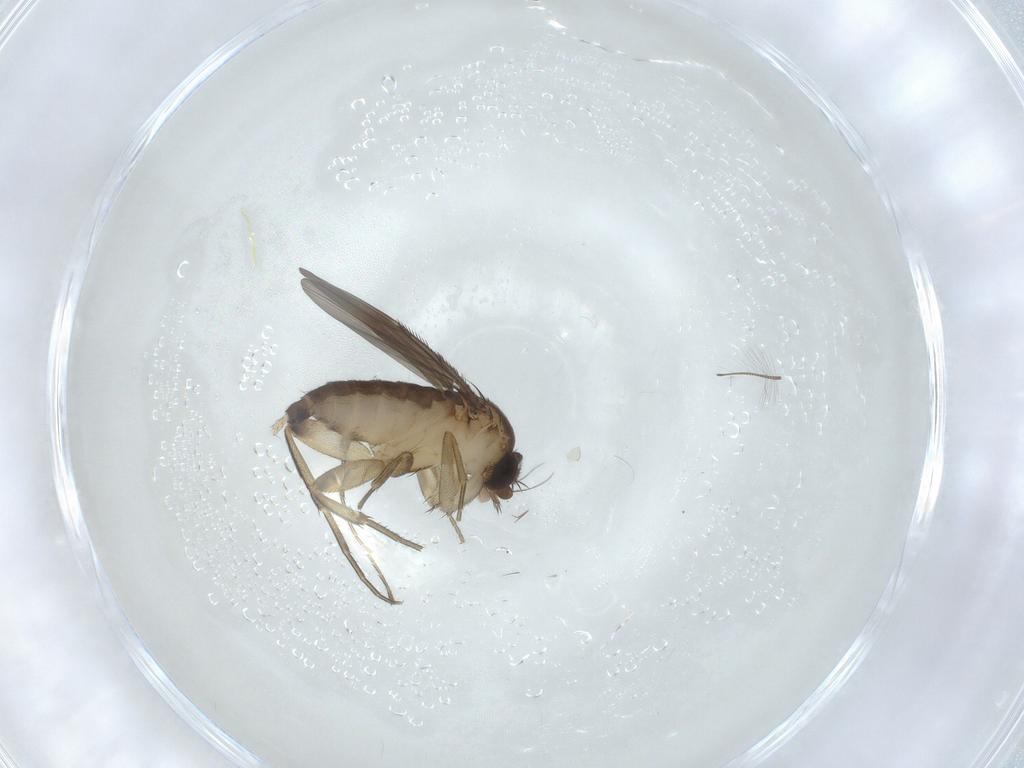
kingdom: Animalia
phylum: Arthropoda
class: Insecta
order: Diptera
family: Phoridae
